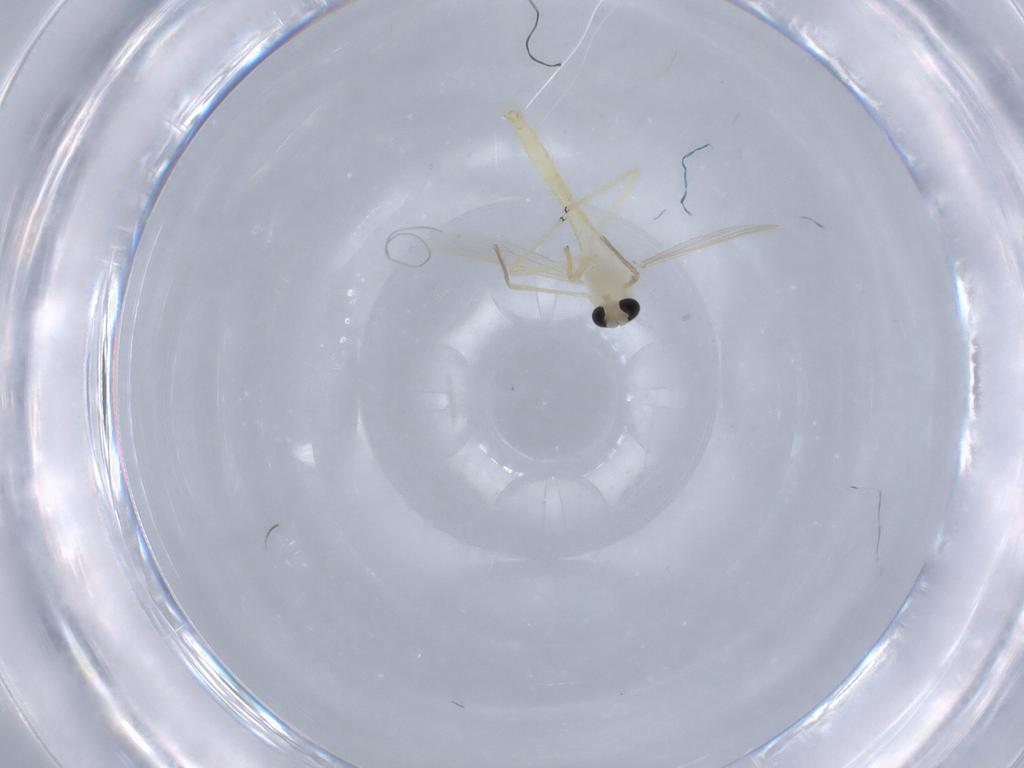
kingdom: Animalia
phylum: Arthropoda
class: Insecta
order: Diptera
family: Chironomidae
